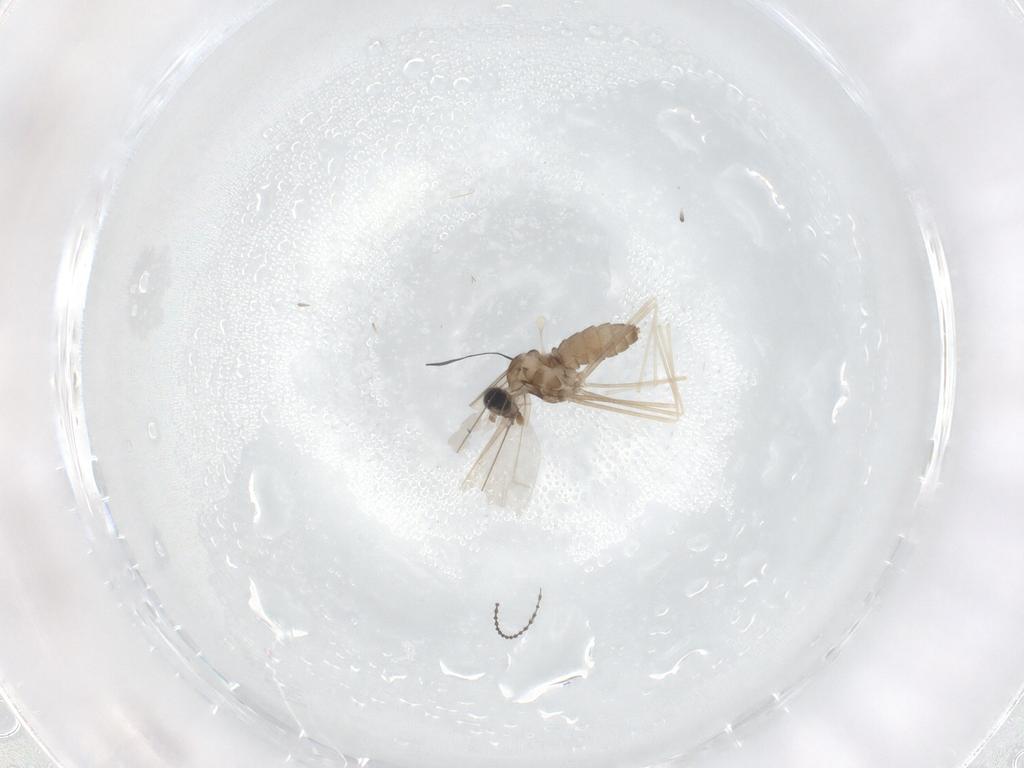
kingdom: Animalia
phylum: Arthropoda
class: Insecta
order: Diptera
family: Cecidomyiidae
